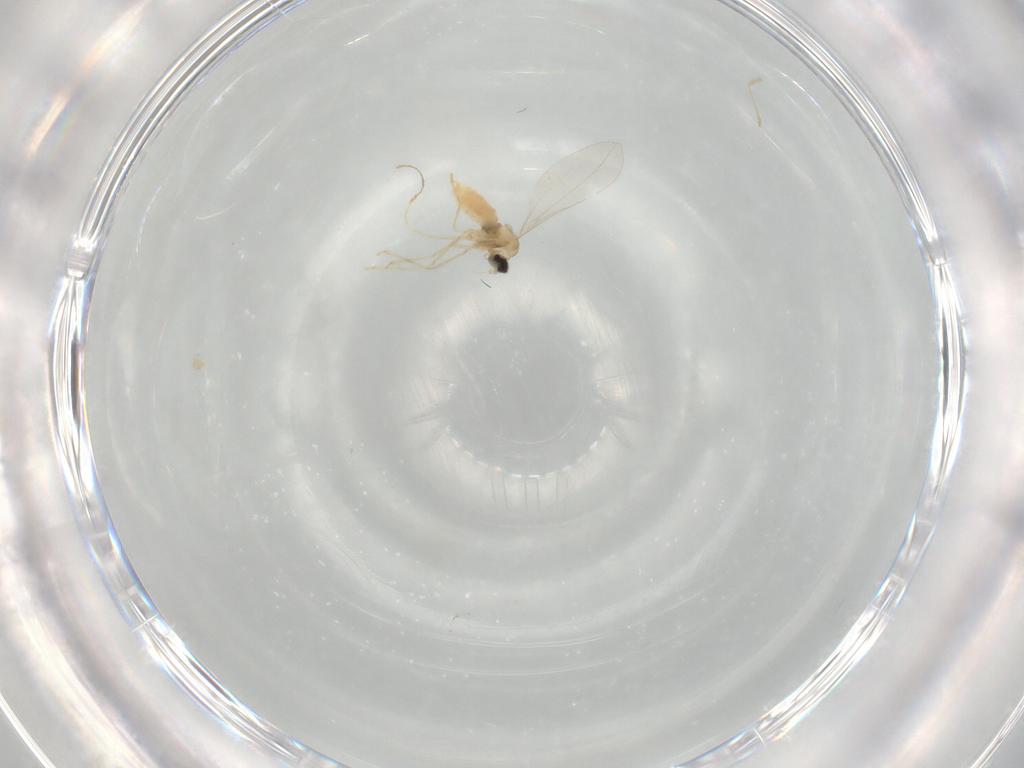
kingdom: Animalia
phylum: Arthropoda
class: Insecta
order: Diptera
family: Cecidomyiidae
